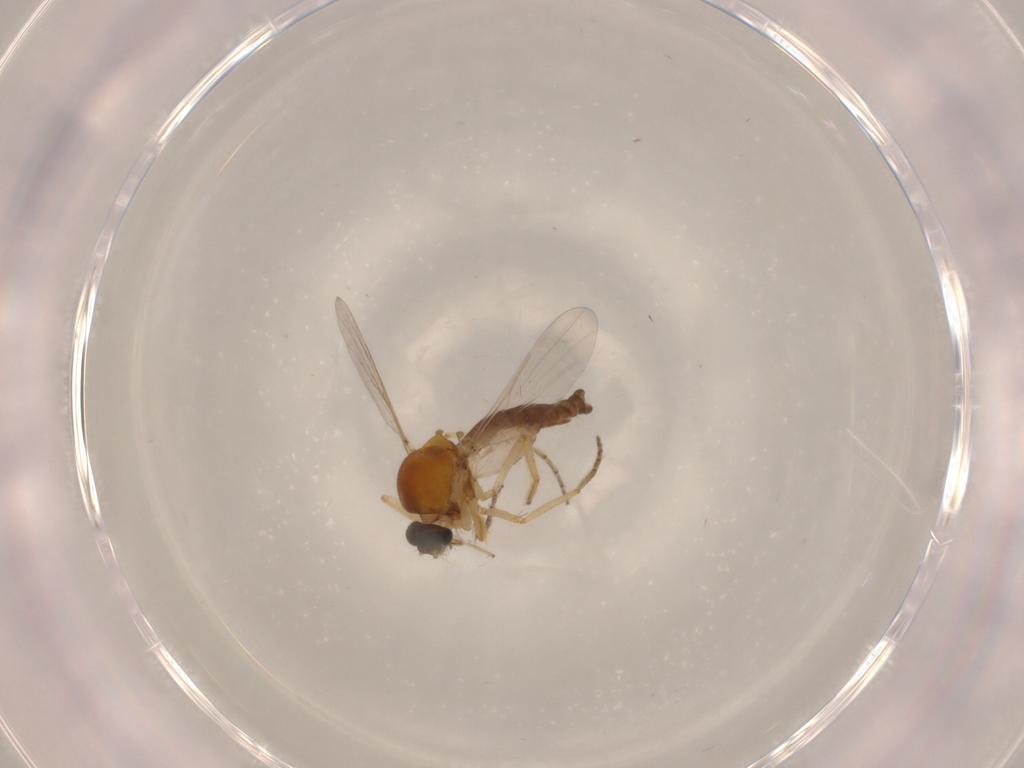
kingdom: Animalia
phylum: Arthropoda
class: Insecta
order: Diptera
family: Ceratopogonidae
